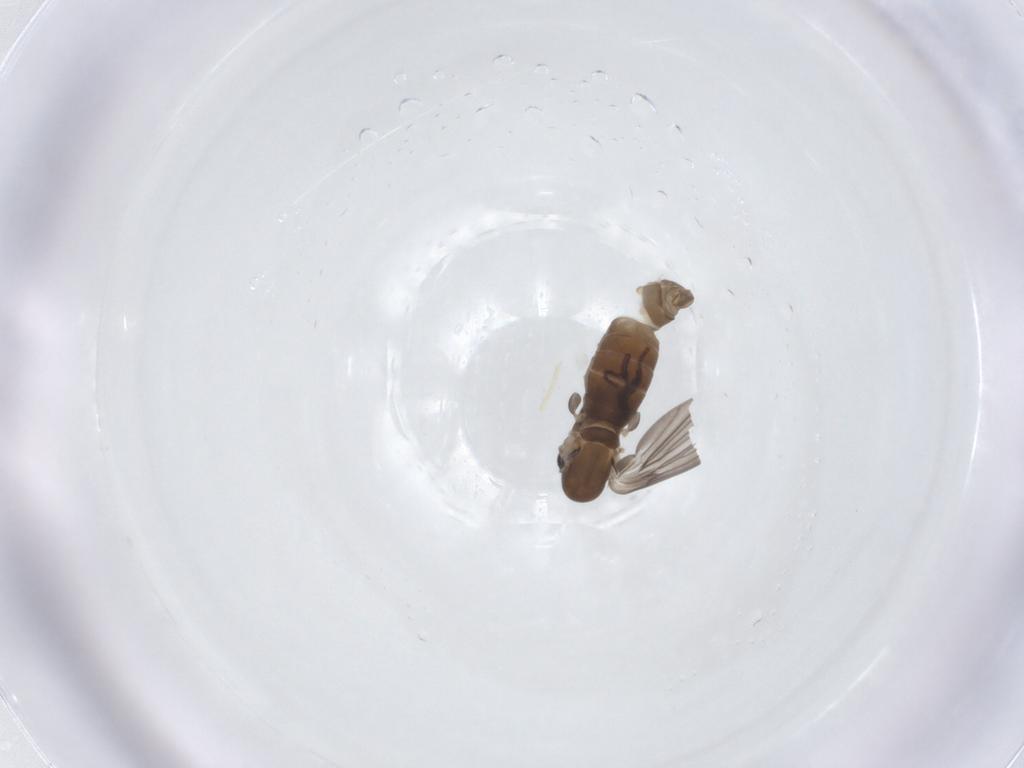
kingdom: Animalia
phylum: Arthropoda
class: Insecta
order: Diptera
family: Psychodidae
